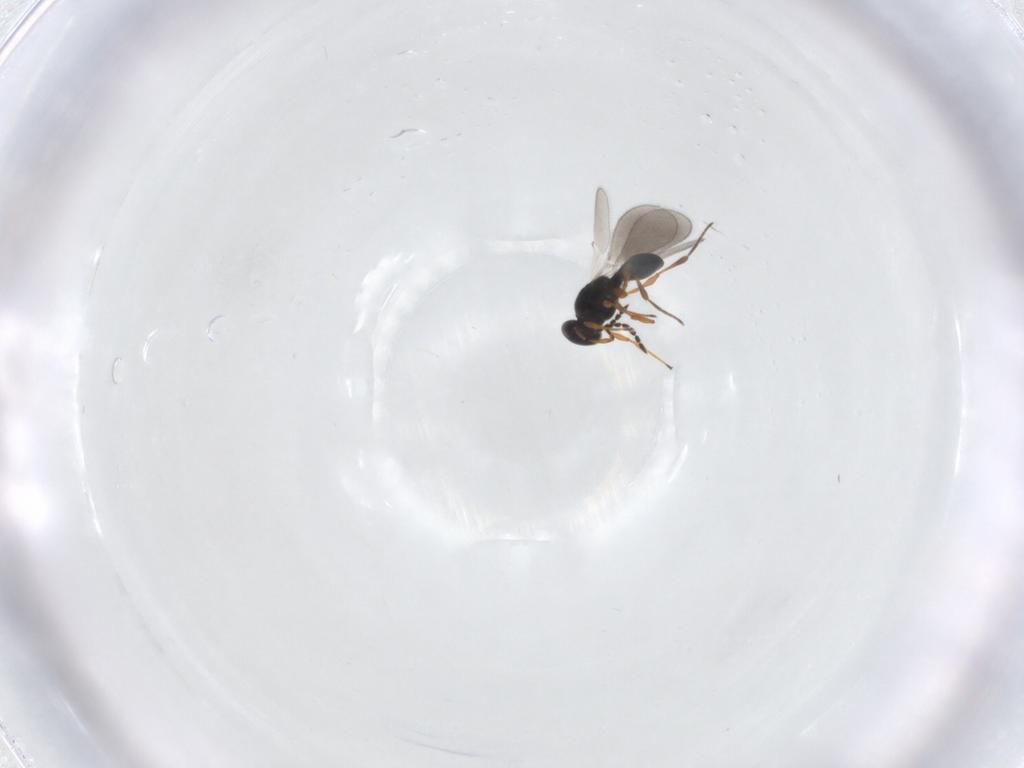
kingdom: Animalia
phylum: Arthropoda
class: Insecta
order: Hymenoptera
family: Platygastridae
